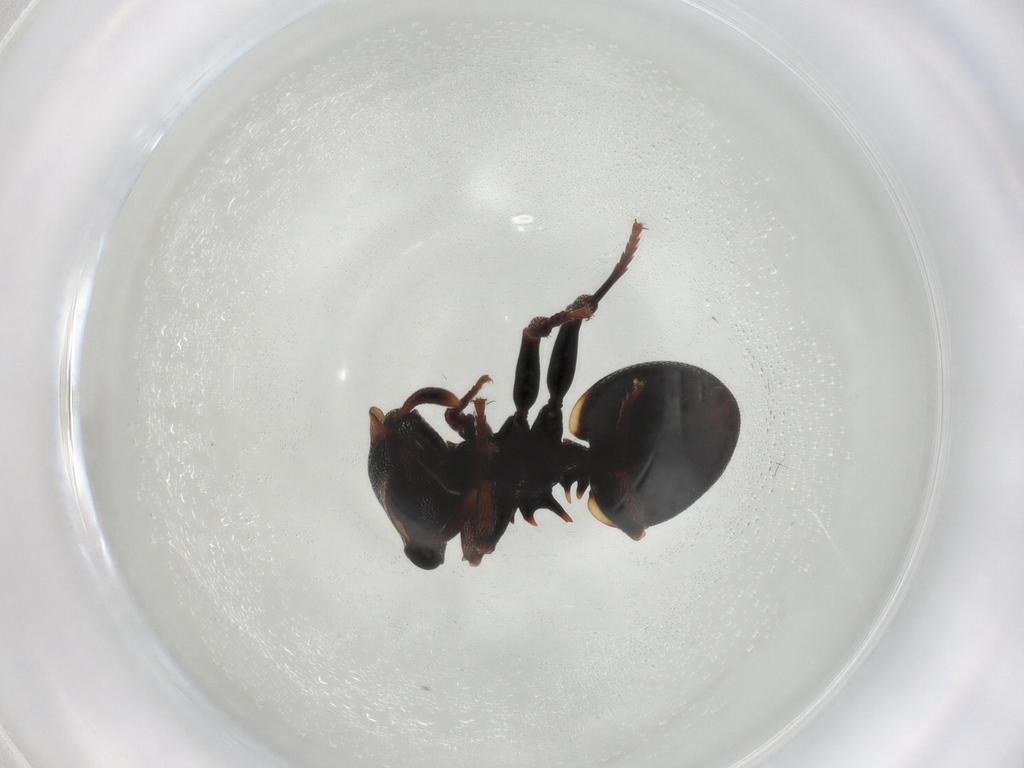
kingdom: Animalia
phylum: Arthropoda
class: Insecta
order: Hymenoptera
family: Formicidae
